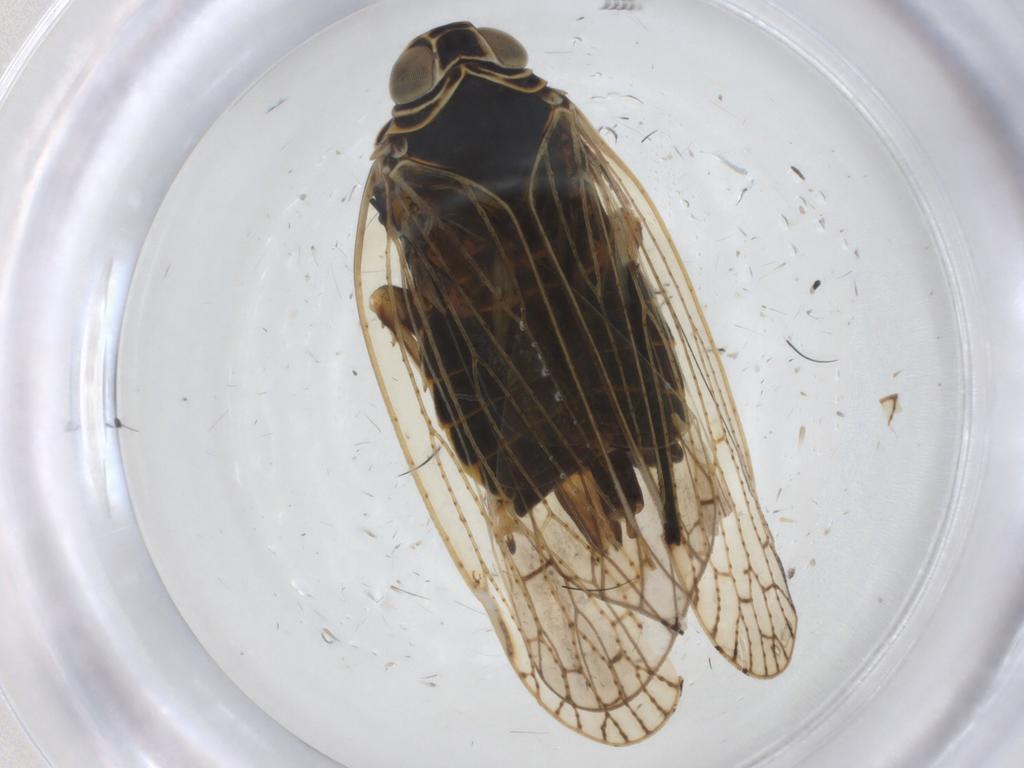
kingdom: Animalia
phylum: Arthropoda
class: Insecta
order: Hemiptera
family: Cixiidae
